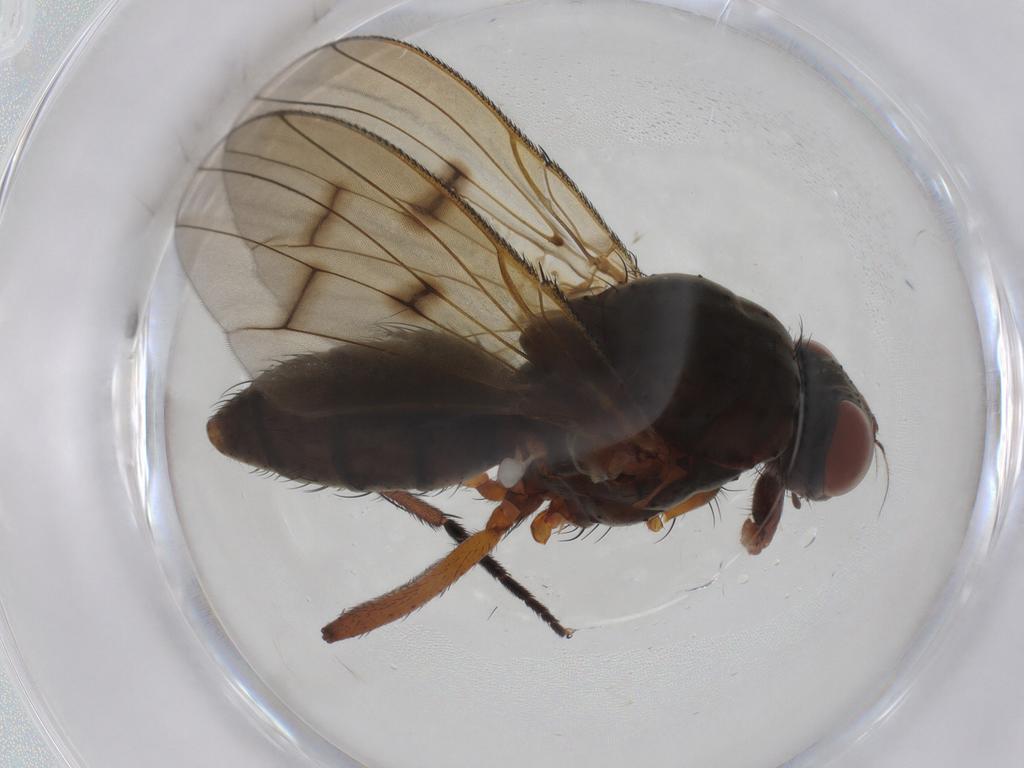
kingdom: Animalia
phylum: Arthropoda
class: Insecta
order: Diptera
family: Anthomyiidae
